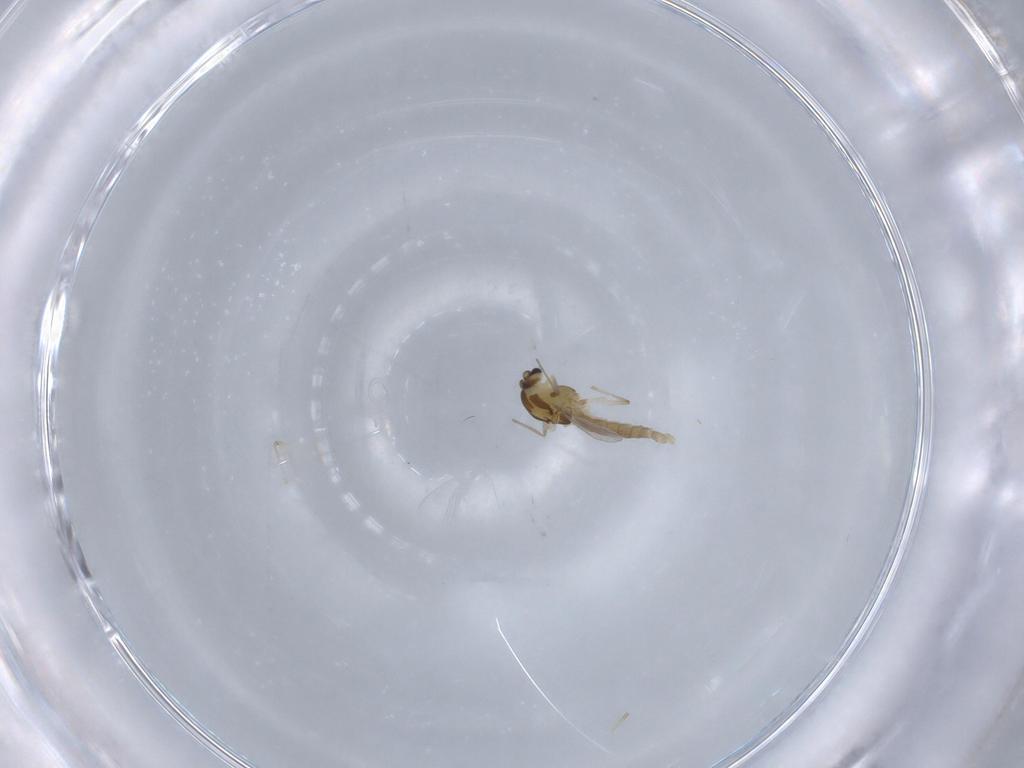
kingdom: Animalia
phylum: Arthropoda
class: Insecta
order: Diptera
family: Chironomidae
